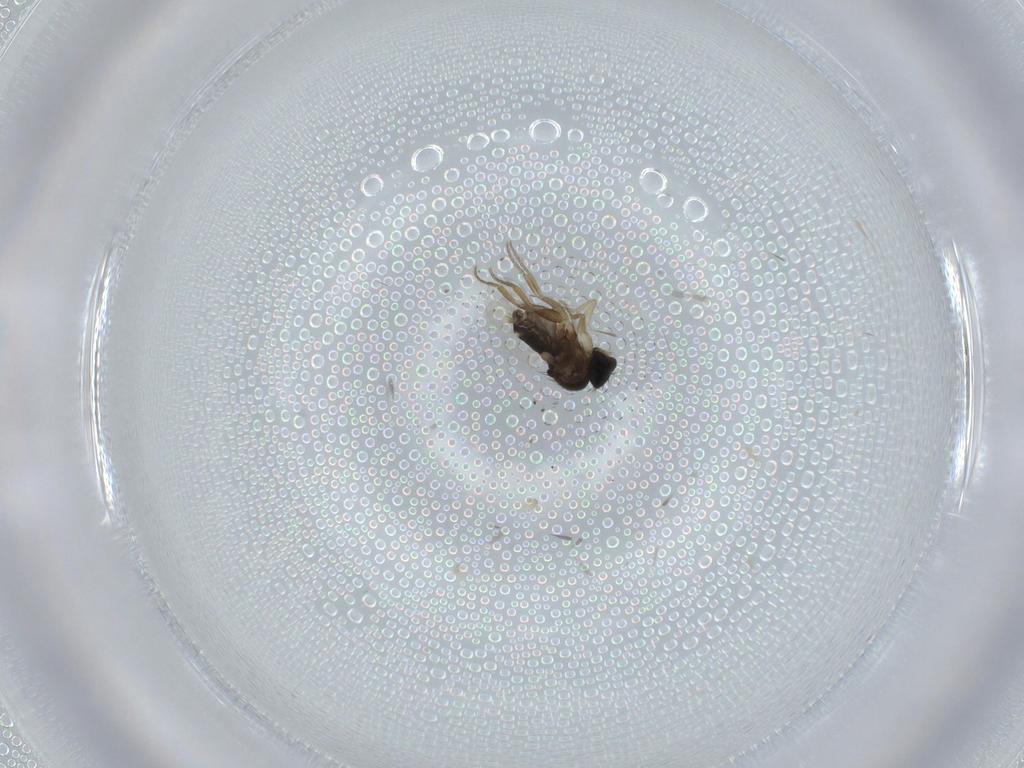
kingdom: Animalia
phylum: Arthropoda
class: Insecta
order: Diptera
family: Phoridae
